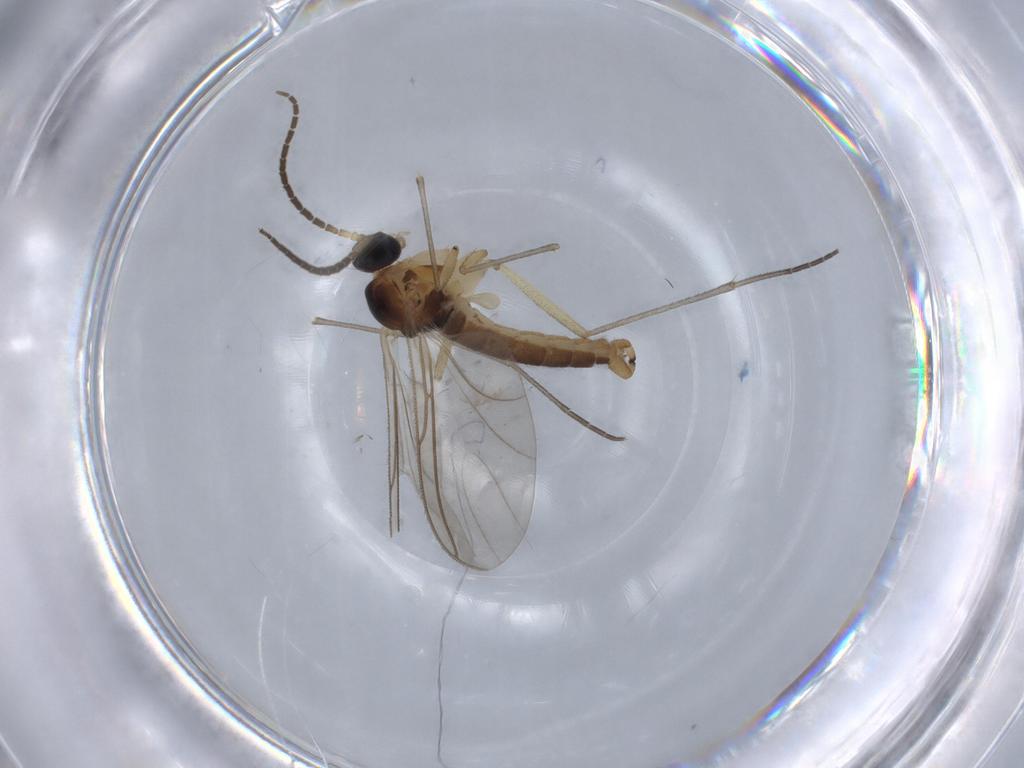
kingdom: Animalia
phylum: Arthropoda
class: Insecta
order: Diptera
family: Sciaridae
